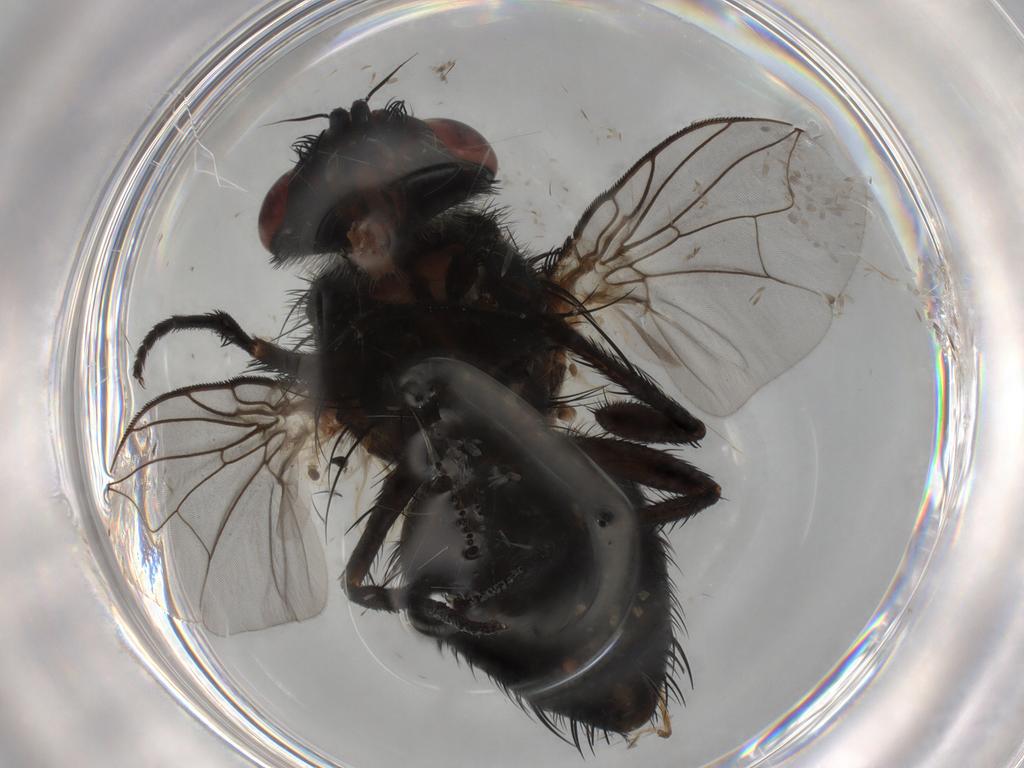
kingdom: Animalia
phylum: Arthropoda
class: Insecta
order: Diptera
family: Tachinidae
